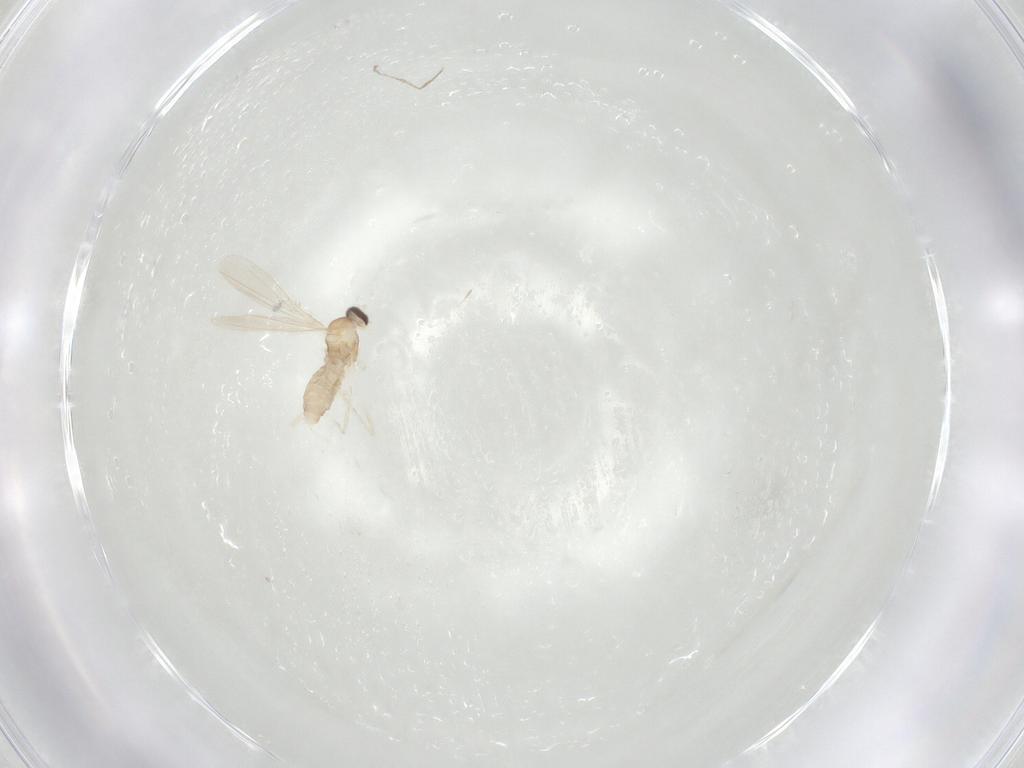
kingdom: Animalia
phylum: Arthropoda
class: Insecta
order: Diptera
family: Cecidomyiidae
